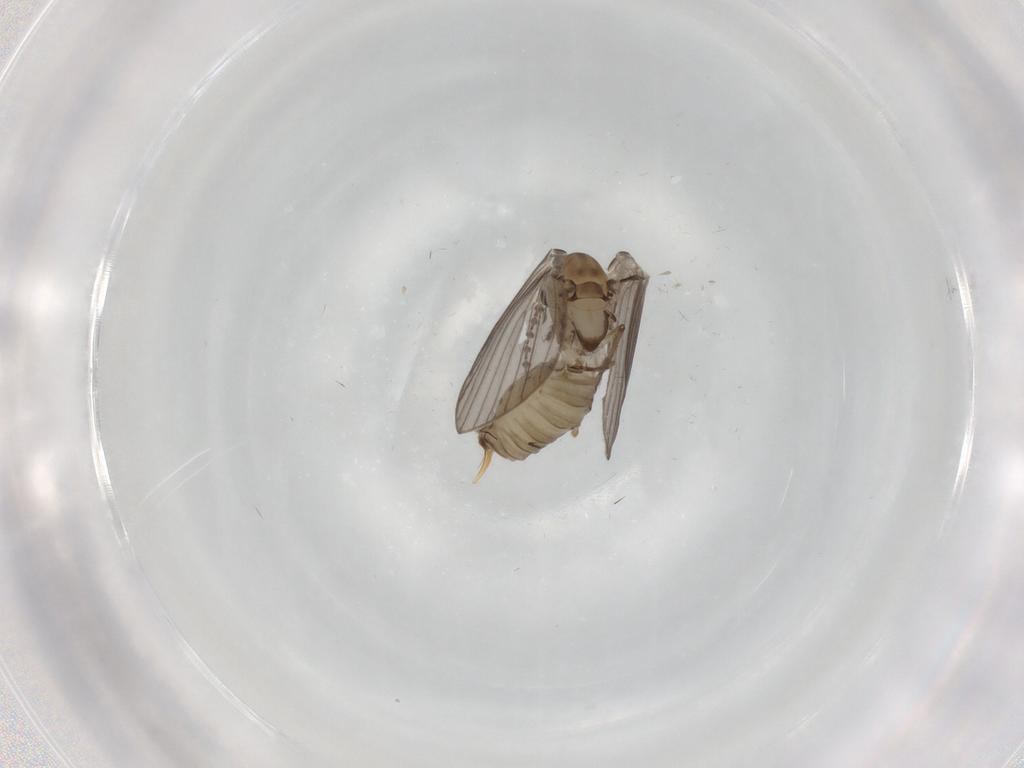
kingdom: Animalia
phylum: Arthropoda
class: Insecta
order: Diptera
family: Psychodidae
